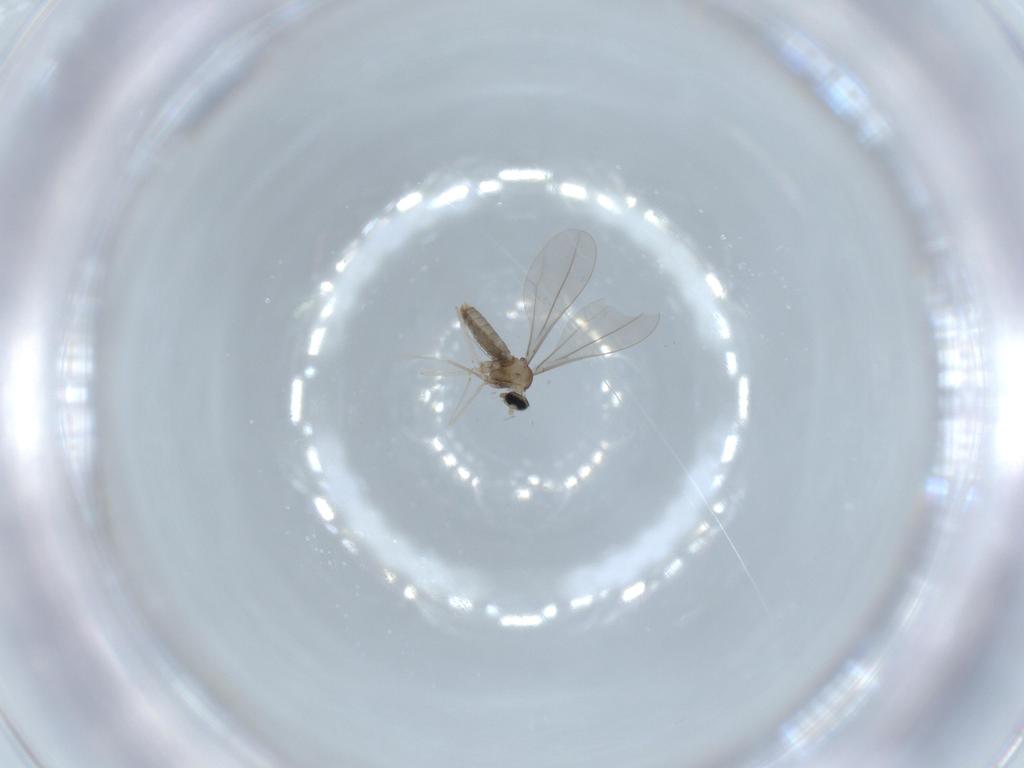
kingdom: Animalia
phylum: Arthropoda
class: Insecta
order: Diptera
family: Cecidomyiidae
